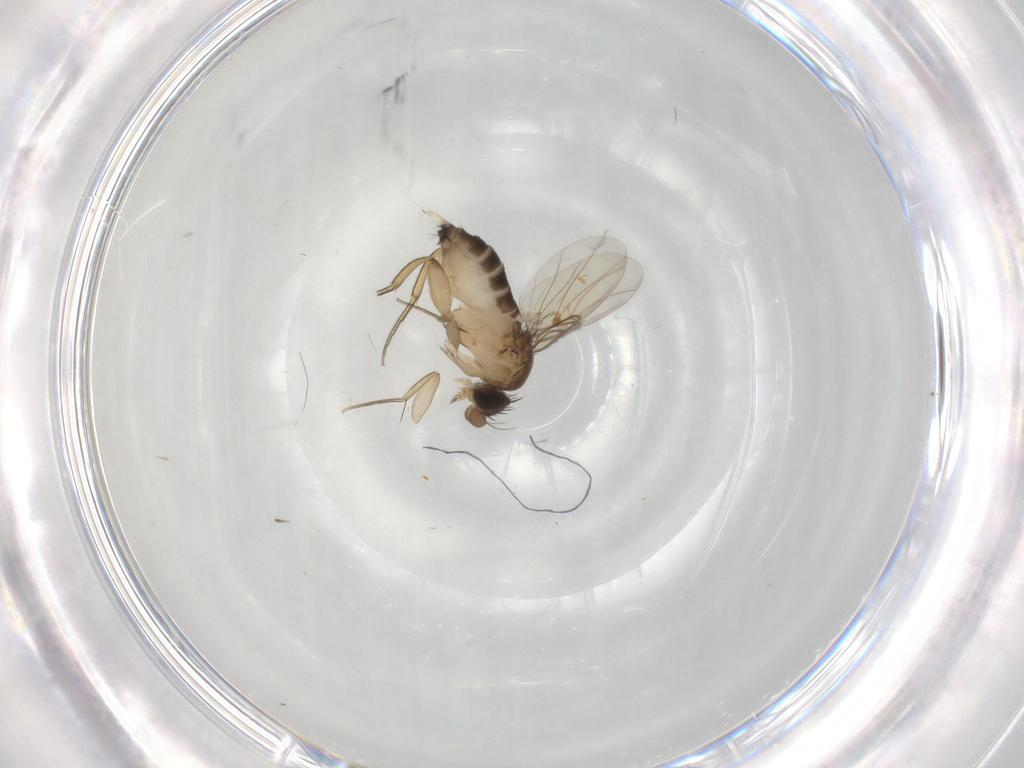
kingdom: Animalia
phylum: Arthropoda
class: Insecta
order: Diptera
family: Phoridae
